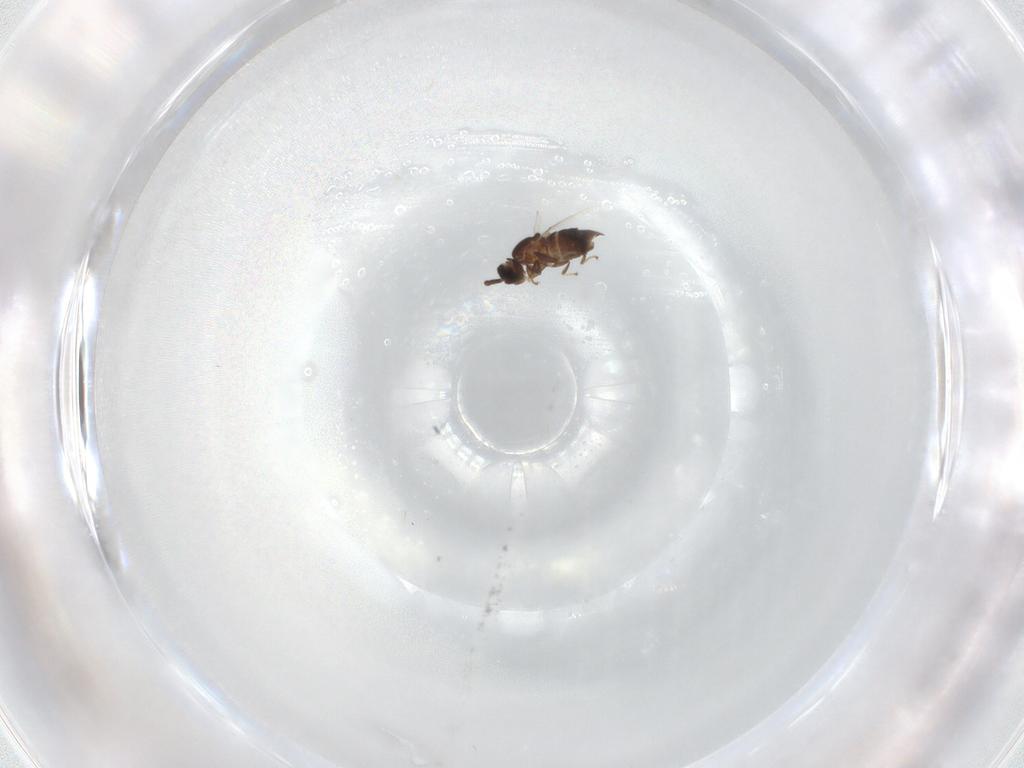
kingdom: Animalia
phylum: Arthropoda
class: Insecta
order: Diptera
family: Scatopsidae
